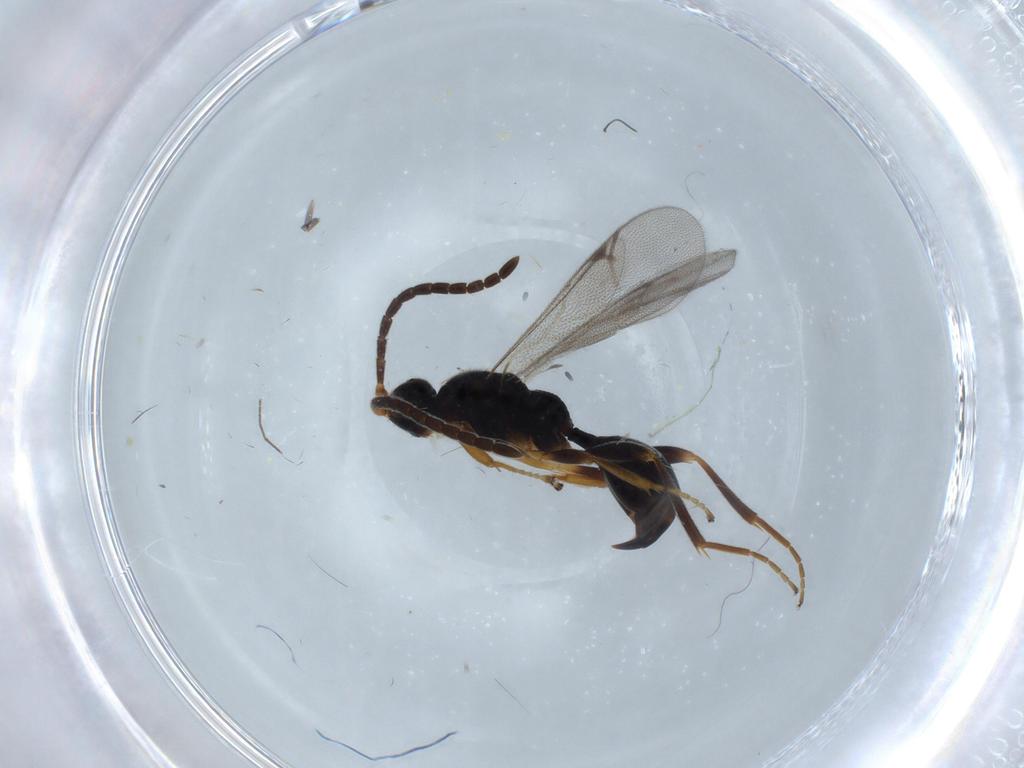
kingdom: Animalia
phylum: Arthropoda
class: Insecta
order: Hymenoptera
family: Proctotrupidae
